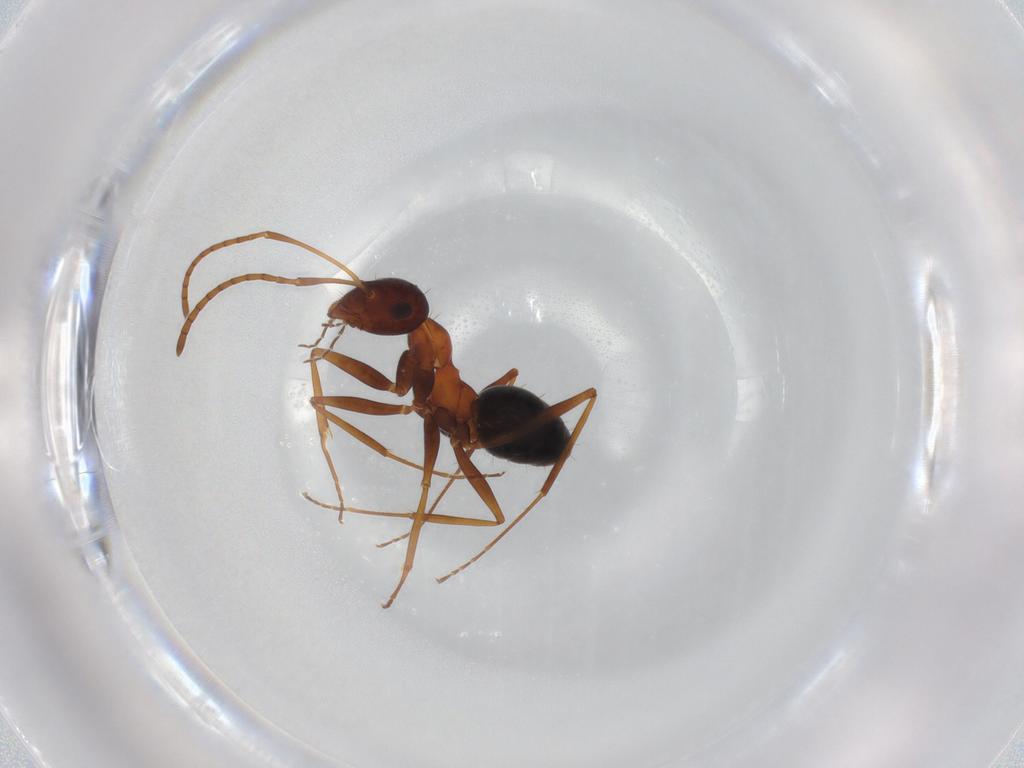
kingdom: Animalia
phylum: Arthropoda
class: Insecta
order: Hymenoptera
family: Formicidae
